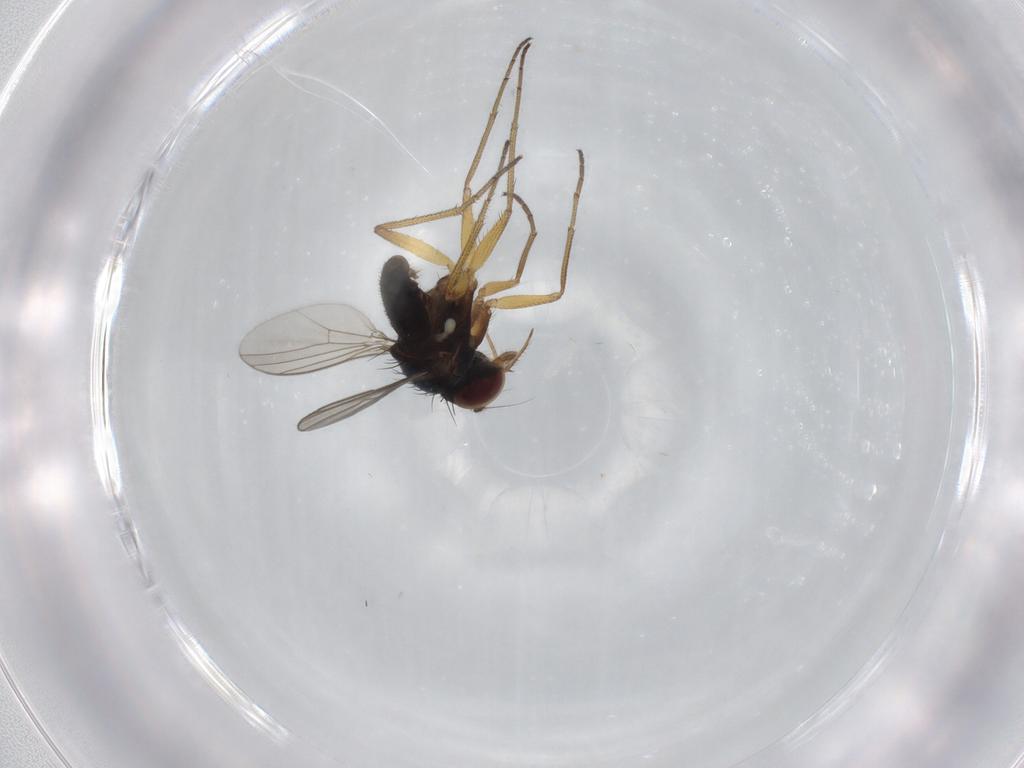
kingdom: Animalia
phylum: Arthropoda
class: Insecta
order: Diptera
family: Dolichopodidae
